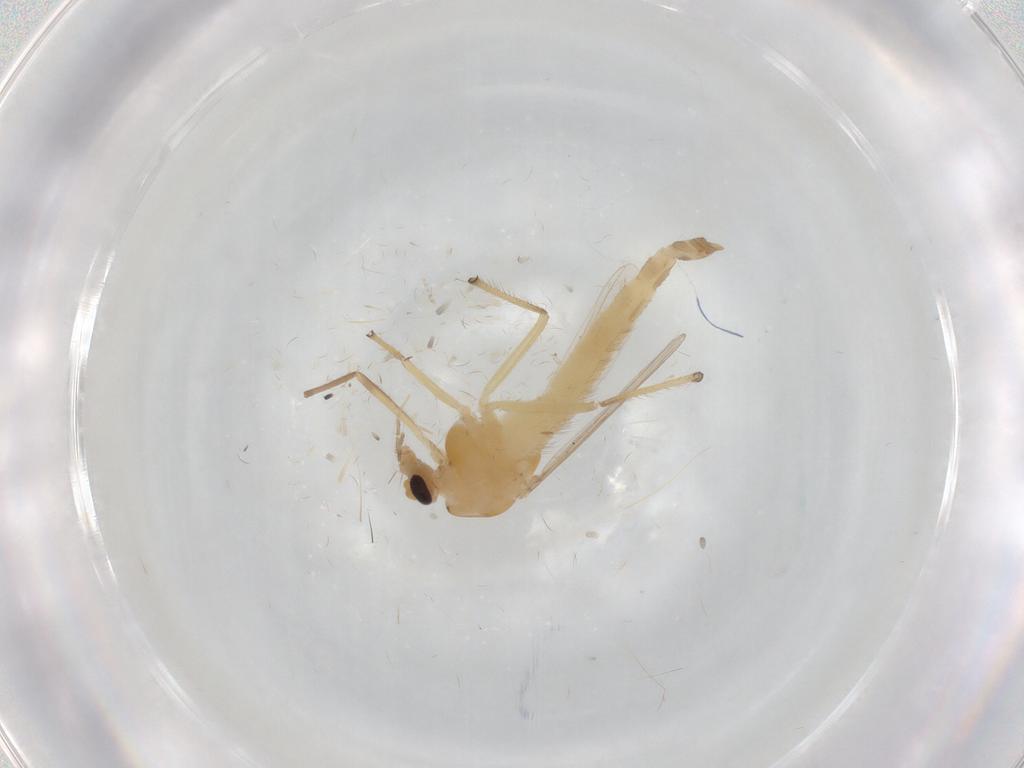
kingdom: Animalia
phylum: Arthropoda
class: Insecta
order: Diptera
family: Chironomidae
